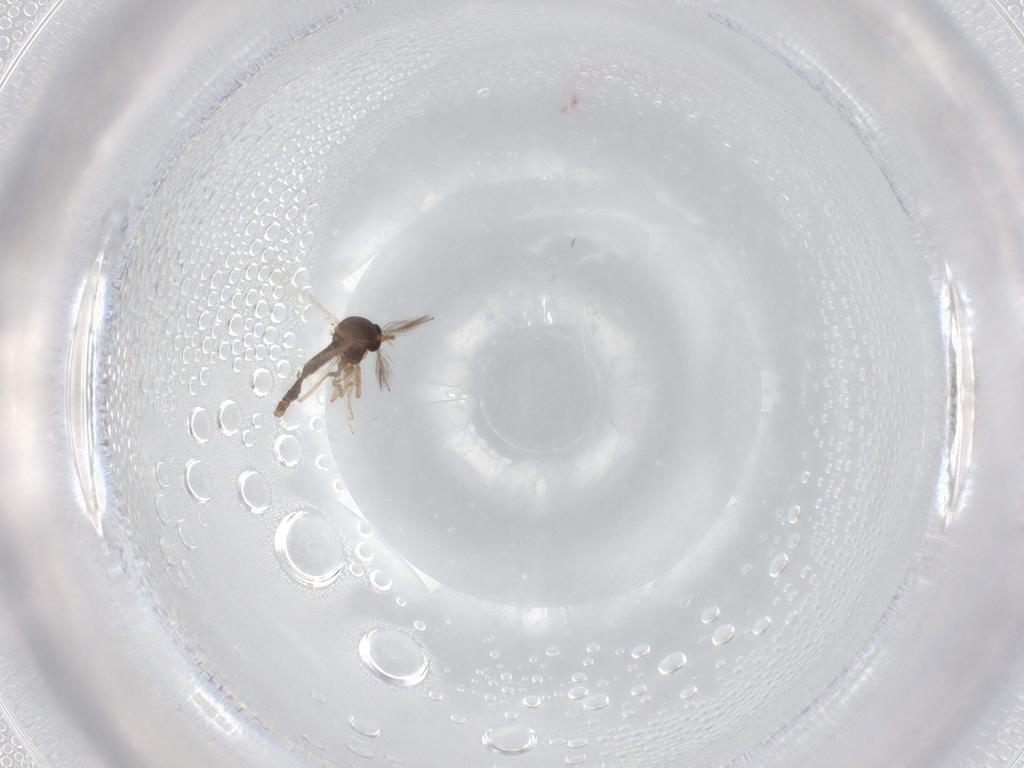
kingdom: Animalia
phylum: Arthropoda
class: Insecta
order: Diptera
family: Ceratopogonidae
